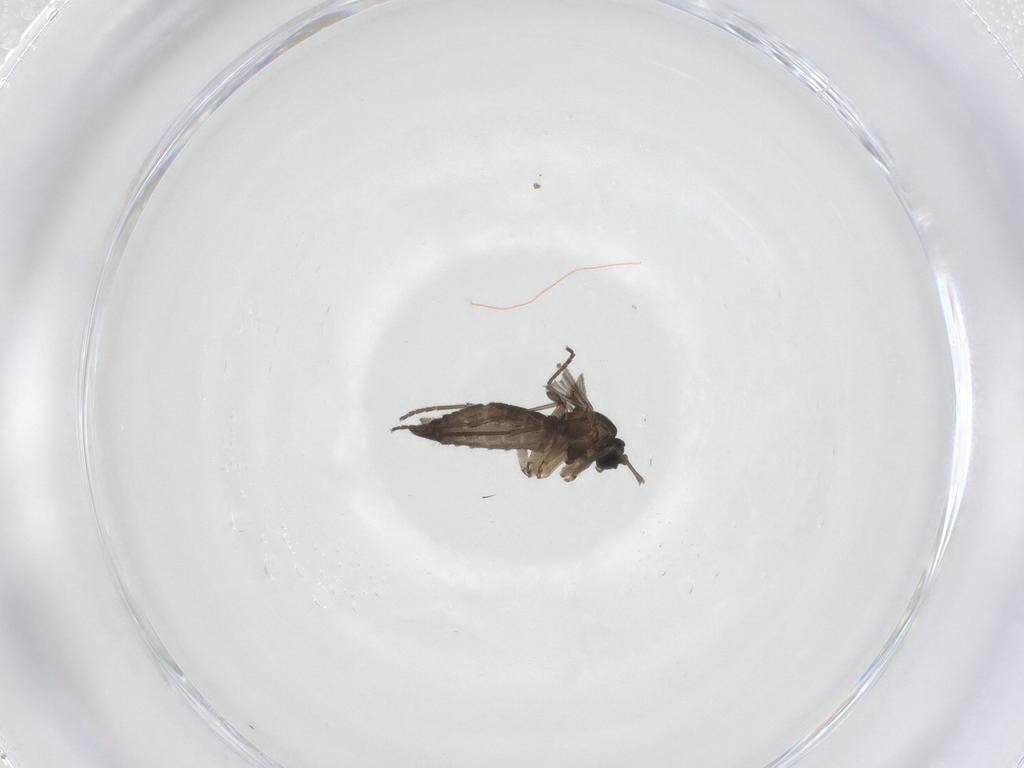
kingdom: Animalia
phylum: Arthropoda
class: Insecta
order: Diptera
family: Sciaridae
